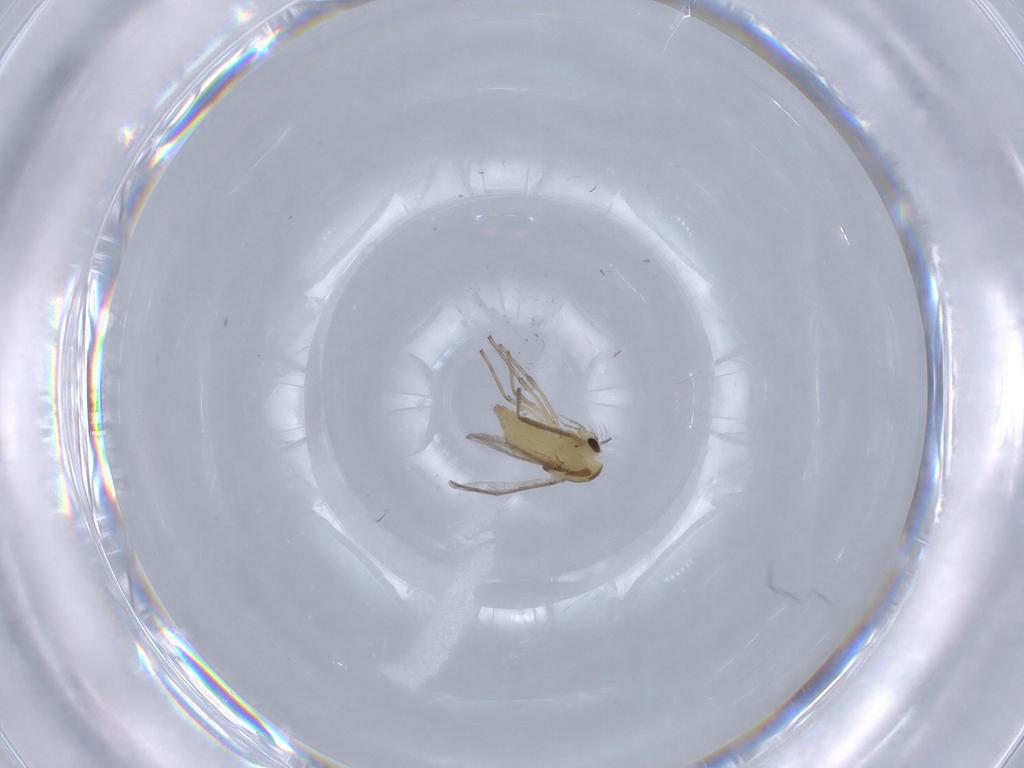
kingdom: Animalia
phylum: Arthropoda
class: Insecta
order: Diptera
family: Chironomidae
